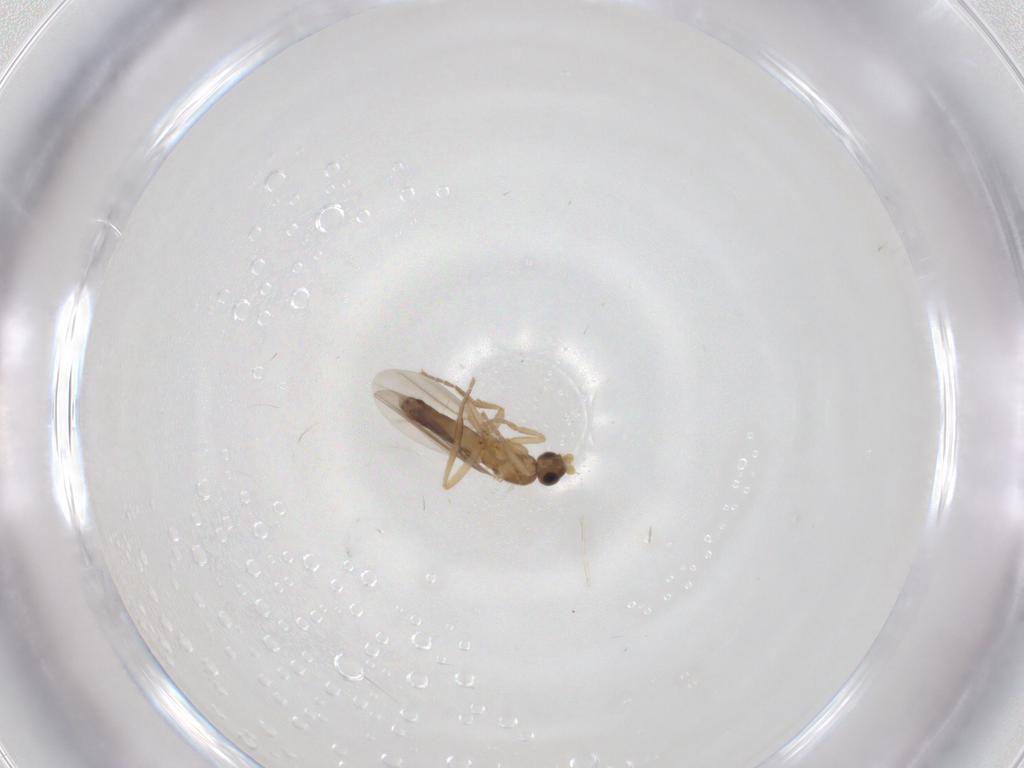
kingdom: Animalia
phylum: Arthropoda
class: Insecta
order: Diptera
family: Phoridae
